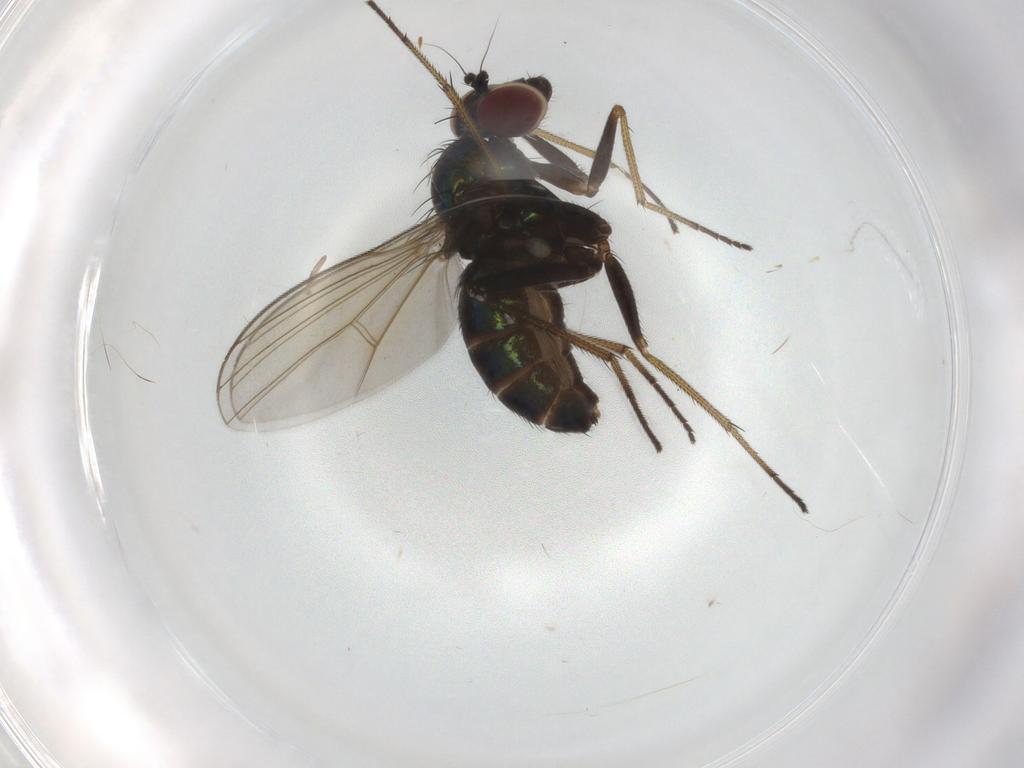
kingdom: Animalia
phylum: Arthropoda
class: Insecta
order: Diptera
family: Dolichopodidae
